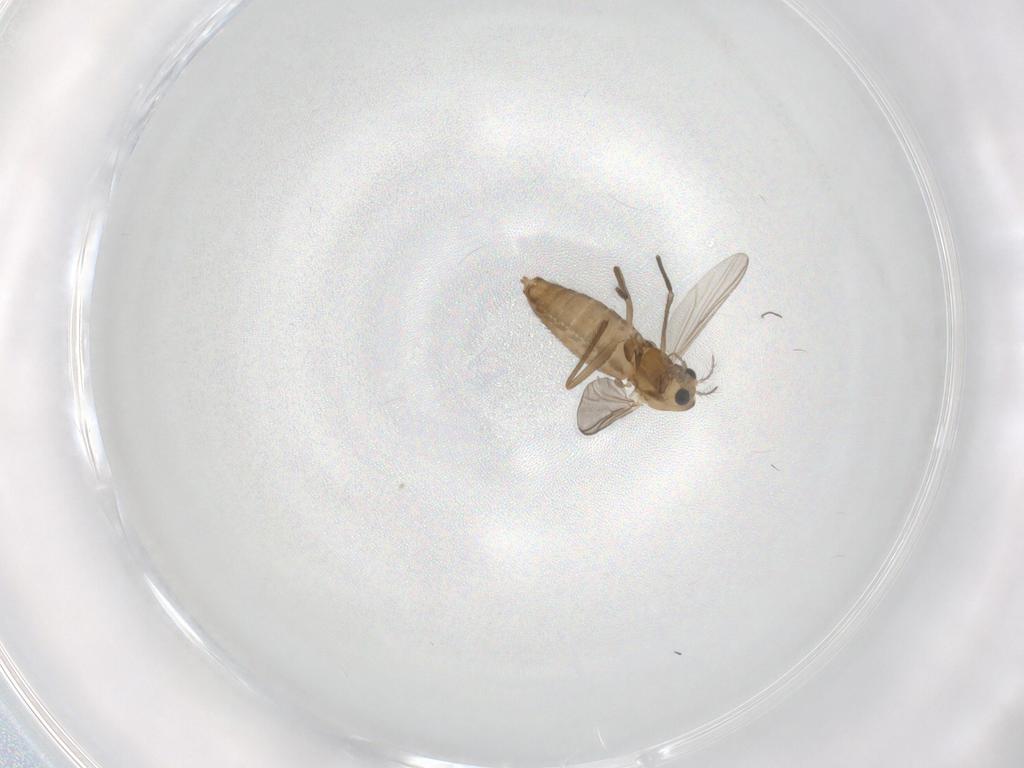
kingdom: Animalia
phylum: Arthropoda
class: Insecta
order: Diptera
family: Chironomidae
